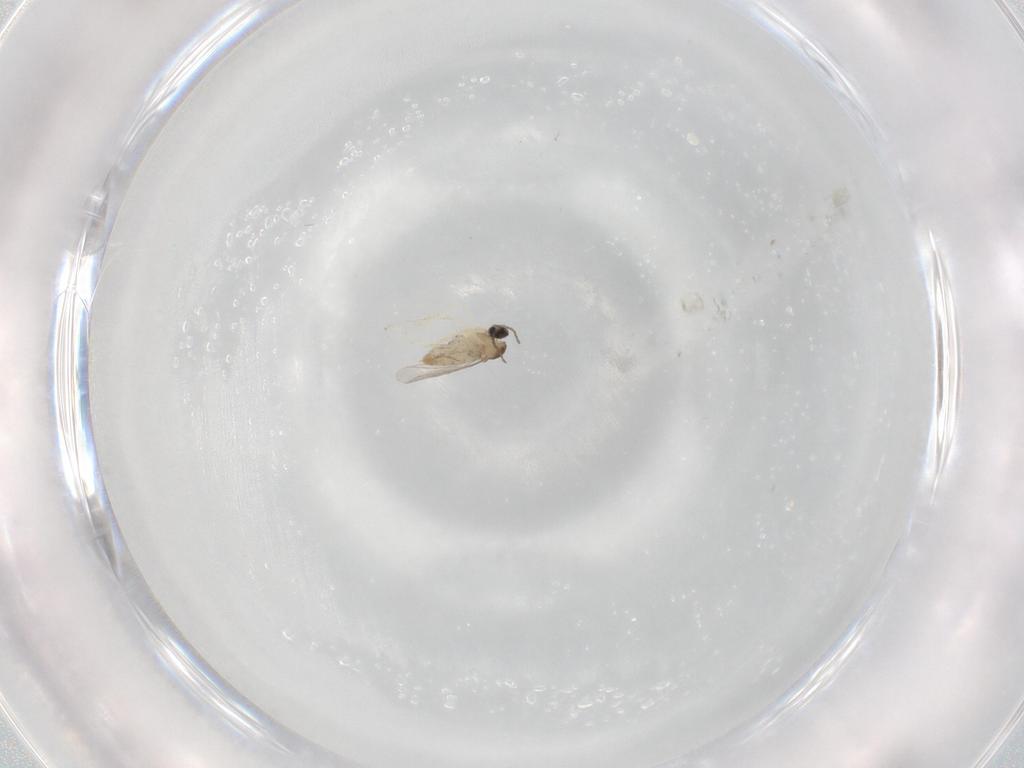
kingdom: Animalia
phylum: Arthropoda
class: Insecta
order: Diptera
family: Cecidomyiidae
